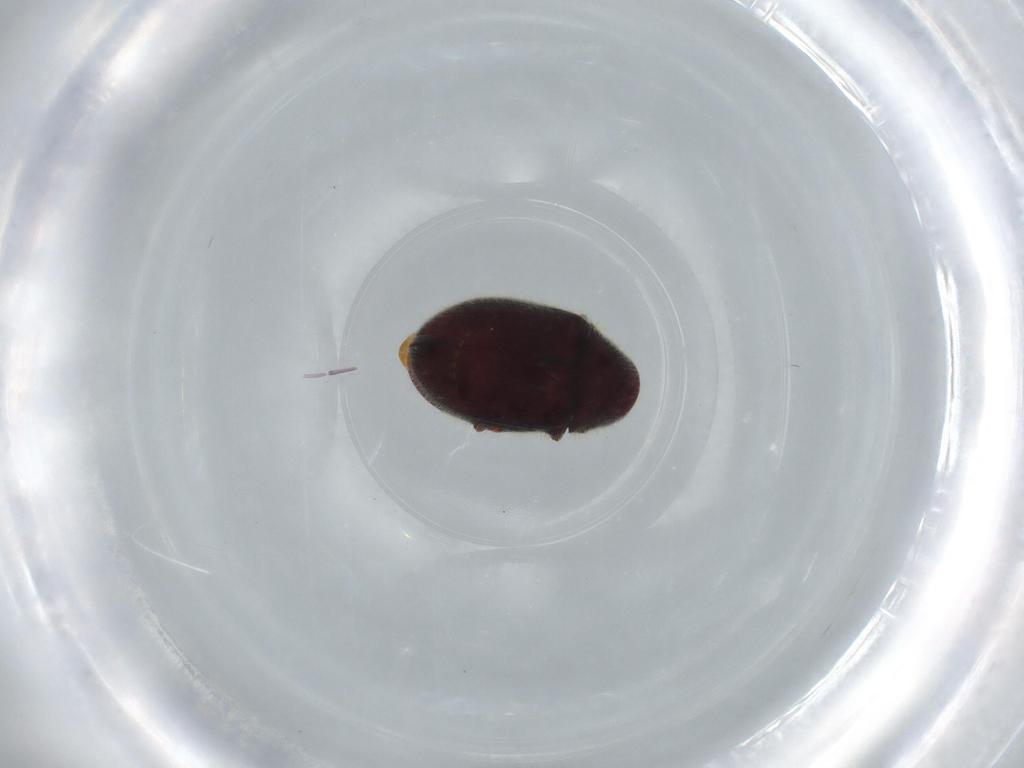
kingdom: Animalia
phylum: Arthropoda
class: Insecta
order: Coleoptera
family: Ptinidae
